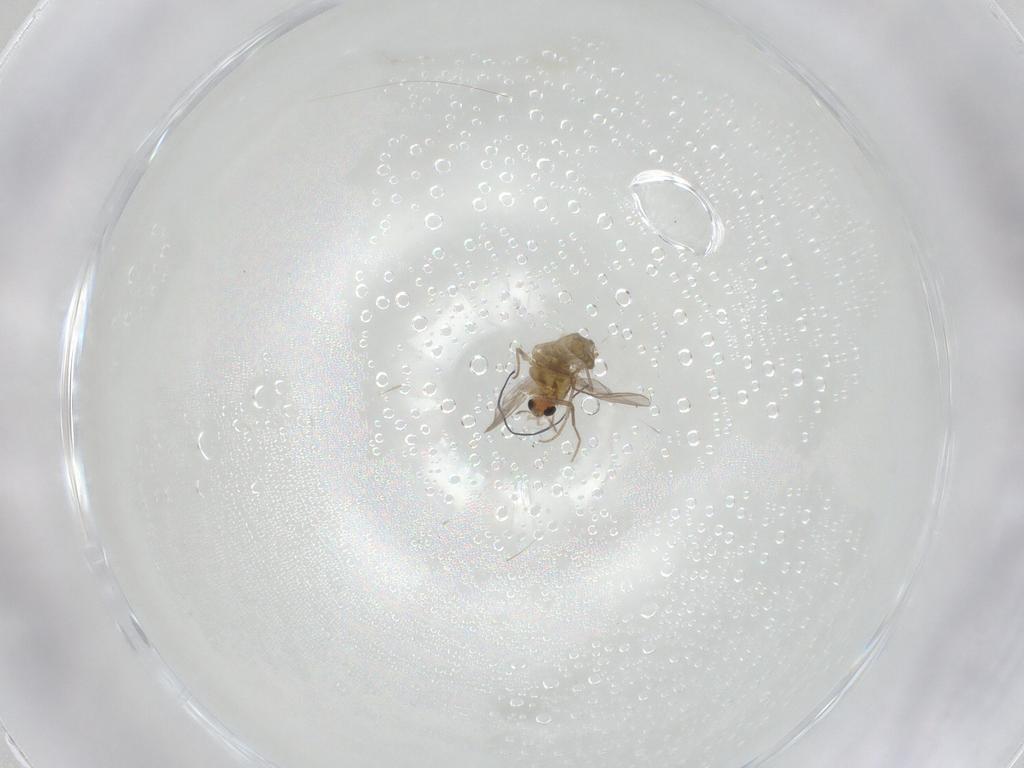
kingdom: Animalia
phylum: Arthropoda
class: Insecta
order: Diptera
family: Chironomidae
